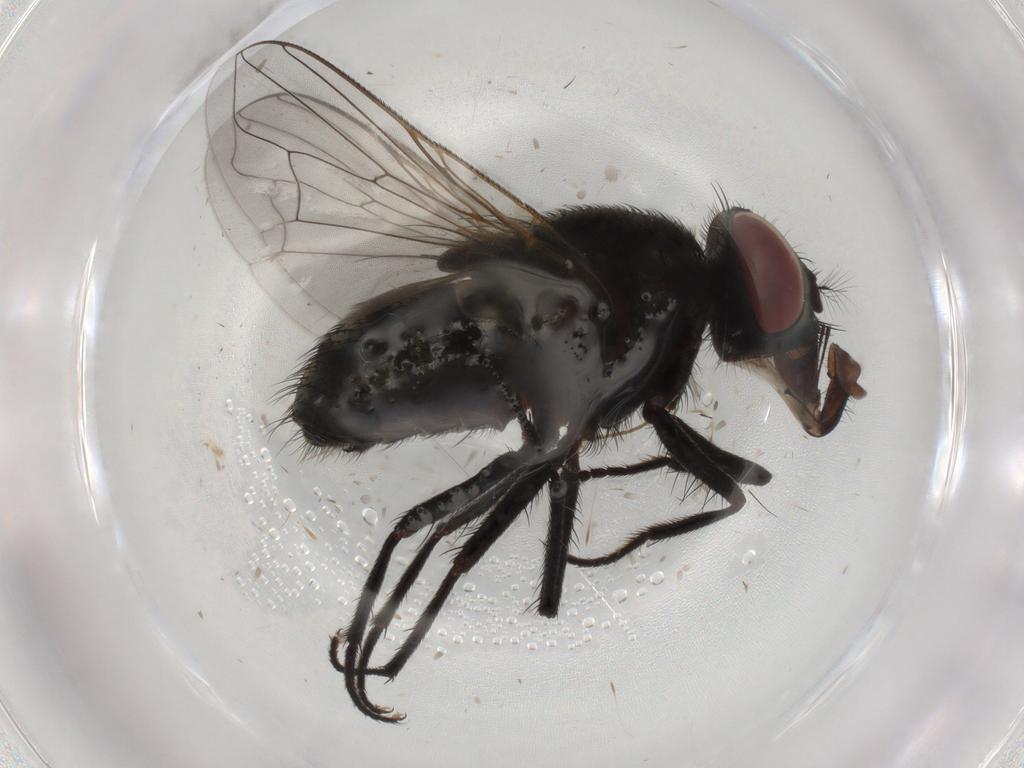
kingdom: Animalia
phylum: Arthropoda
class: Insecta
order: Diptera
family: Muscidae
